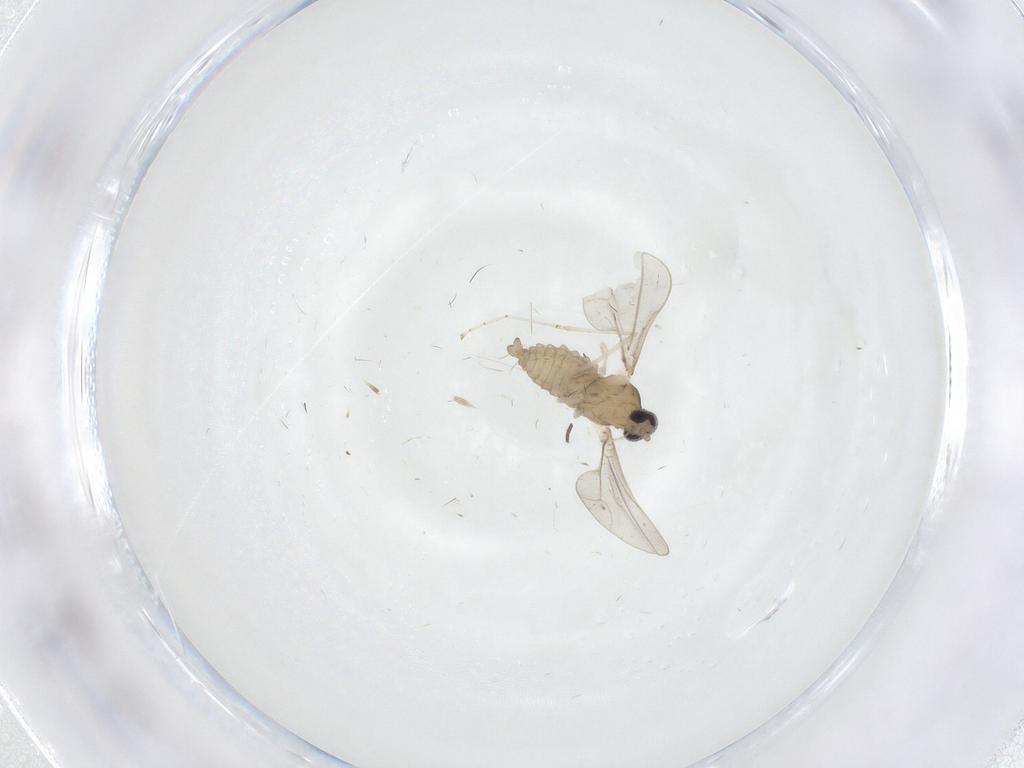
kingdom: Animalia
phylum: Arthropoda
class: Insecta
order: Diptera
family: Sciaridae
